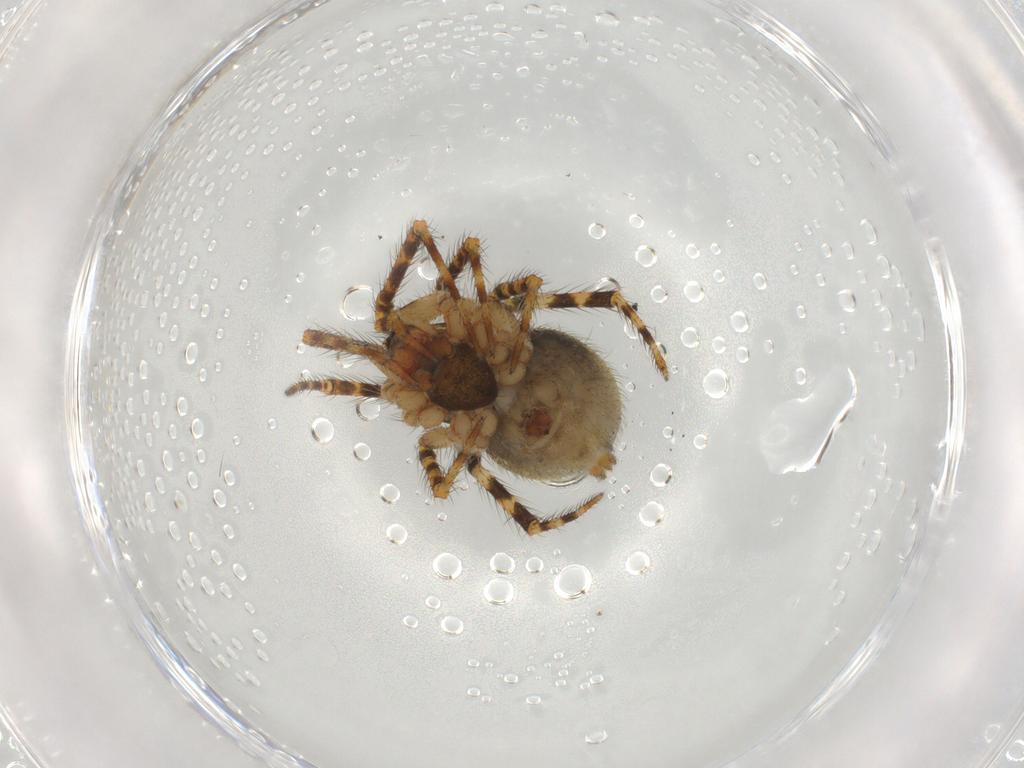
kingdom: Animalia
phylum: Arthropoda
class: Arachnida
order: Araneae
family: Theridiidae
